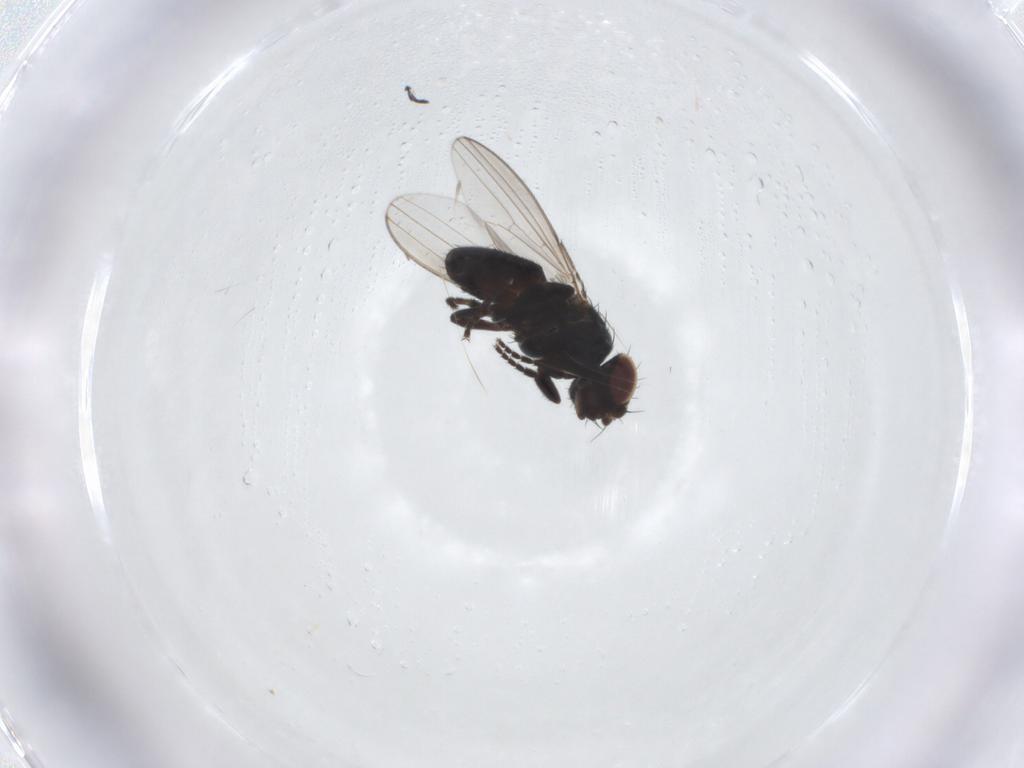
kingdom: Animalia
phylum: Arthropoda
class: Insecta
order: Diptera
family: Chloropidae
